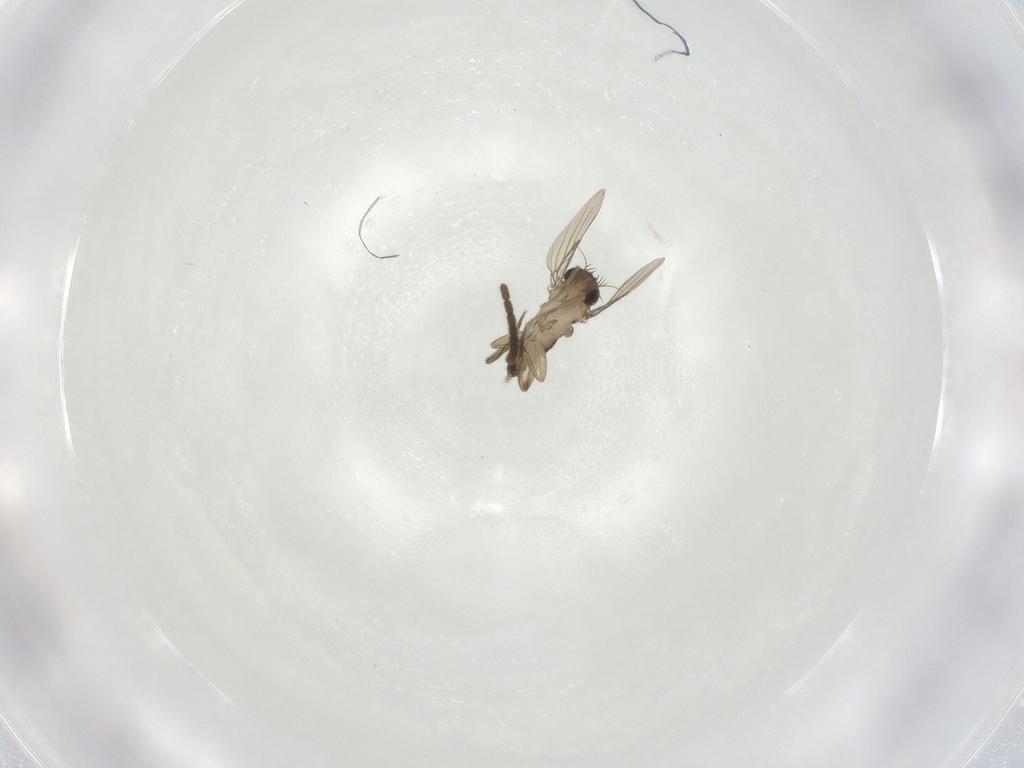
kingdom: Animalia
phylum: Arthropoda
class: Insecta
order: Diptera
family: Phoridae
